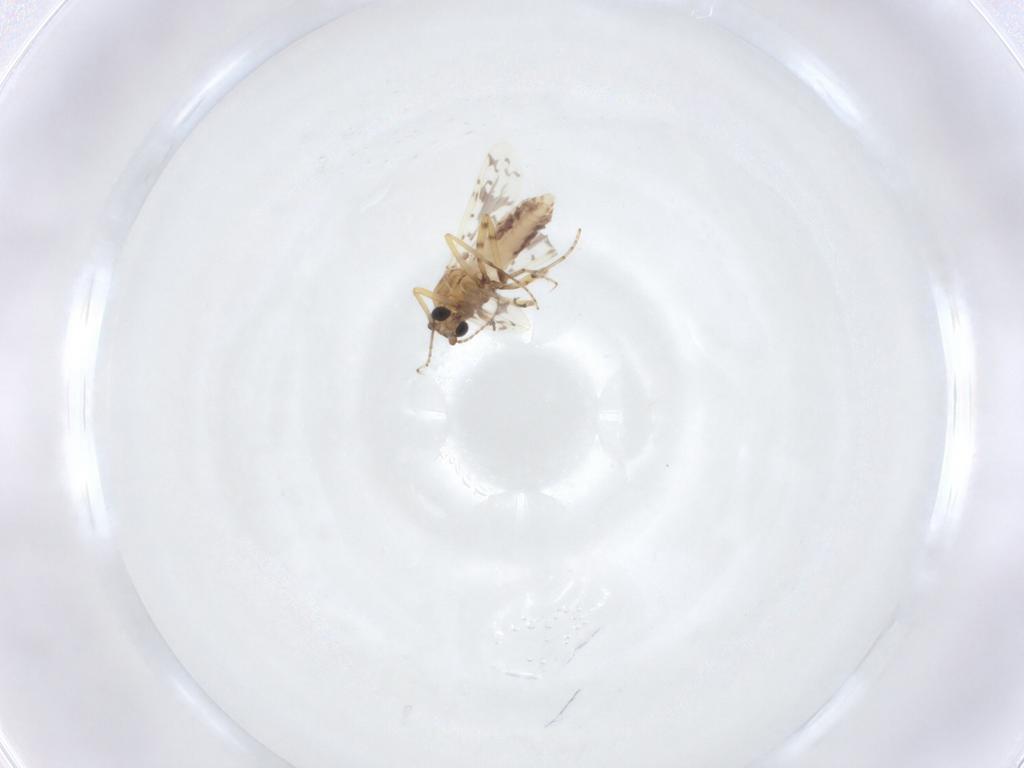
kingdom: Animalia
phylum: Arthropoda
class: Insecta
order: Diptera
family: Ceratopogonidae
